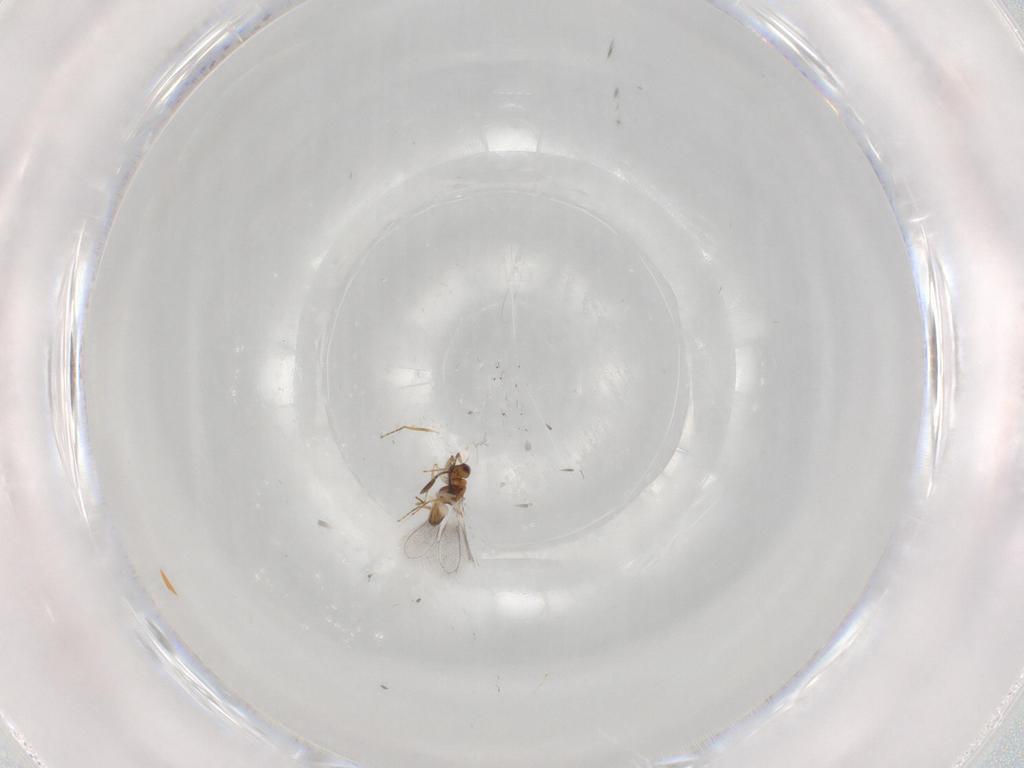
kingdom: Animalia
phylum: Arthropoda
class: Insecta
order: Hymenoptera
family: Mymaridae
